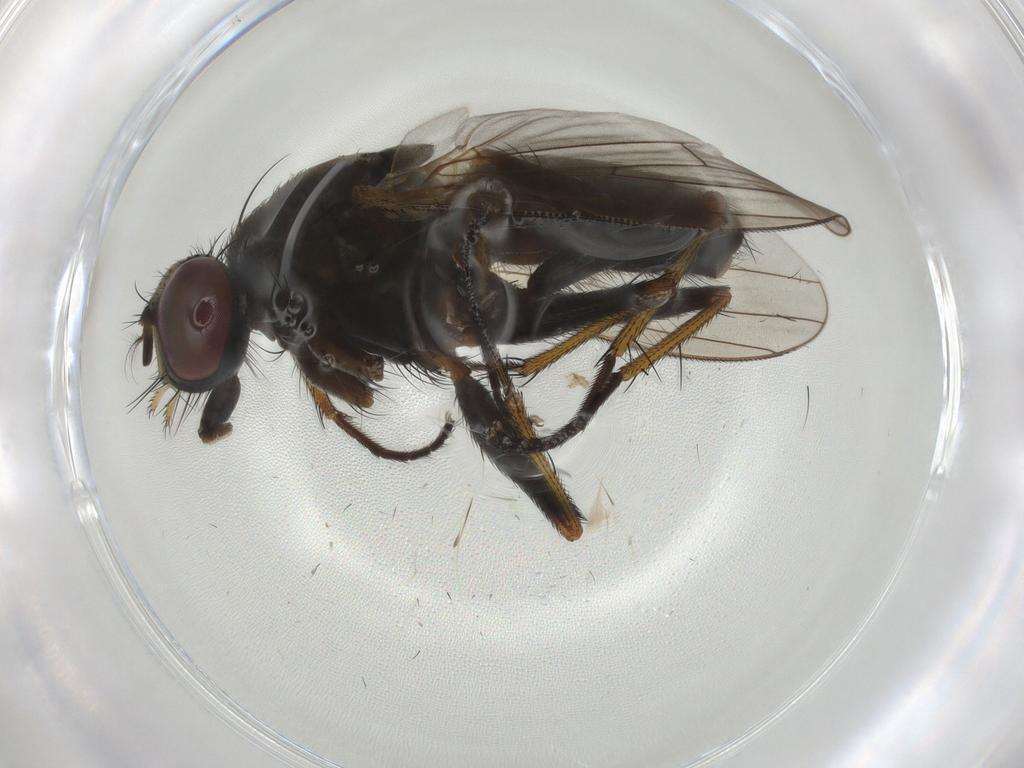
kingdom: Animalia
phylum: Arthropoda
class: Insecta
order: Diptera
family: Muscidae
